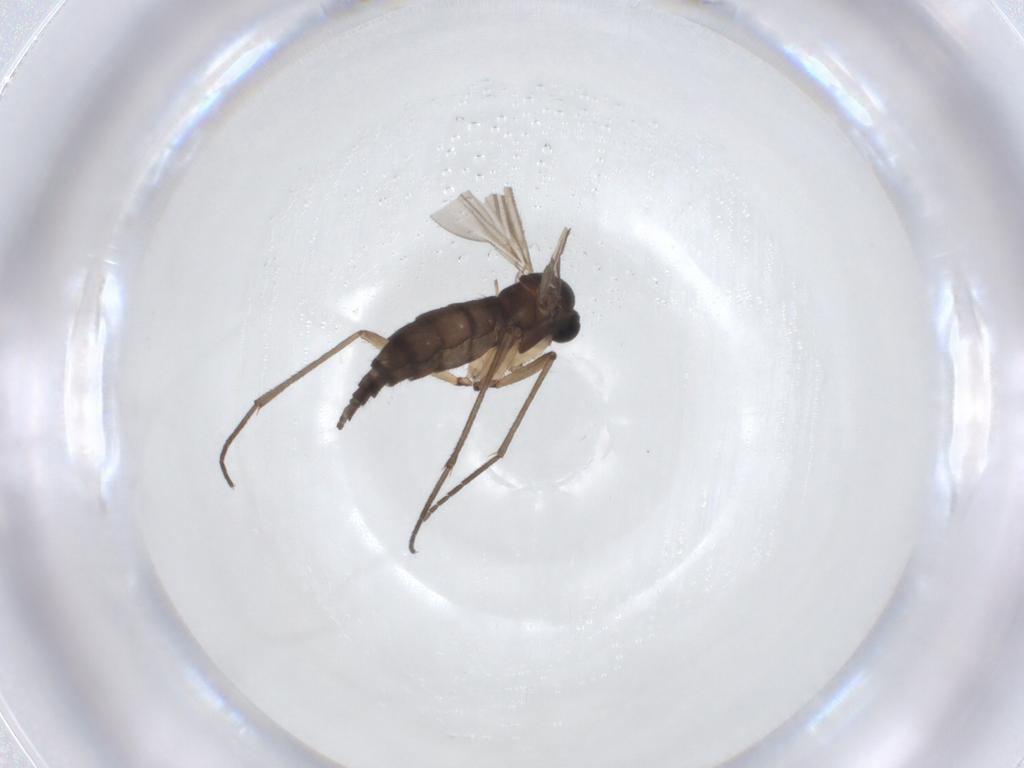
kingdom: Animalia
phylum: Arthropoda
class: Insecta
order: Diptera
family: Sciaridae
